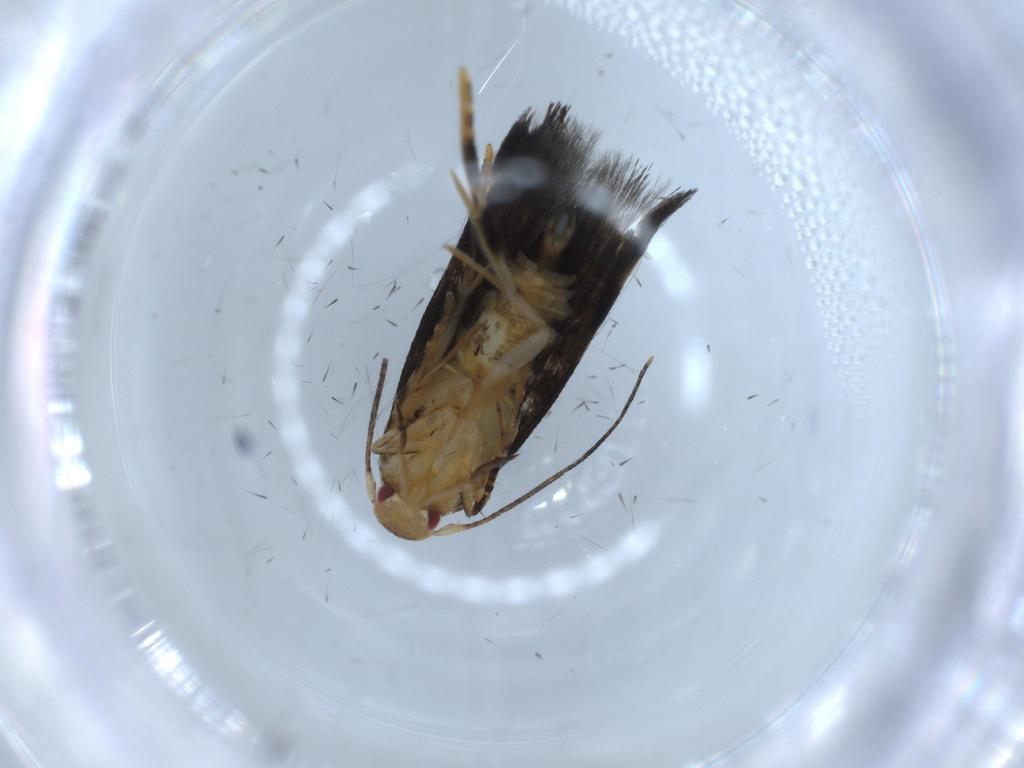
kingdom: Animalia
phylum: Arthropoda
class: Insecta
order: Lepidoptera
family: Momphidae
